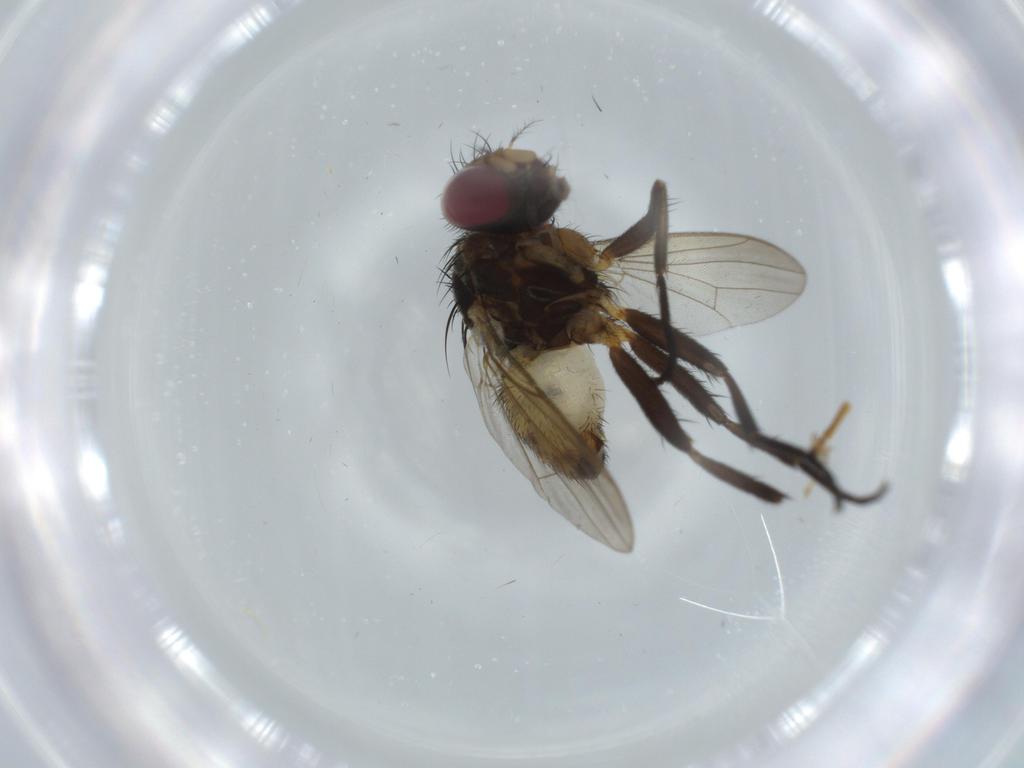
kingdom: Animalia
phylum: Arthropoda
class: Insecta
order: Diptera
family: Anthomyiidae
